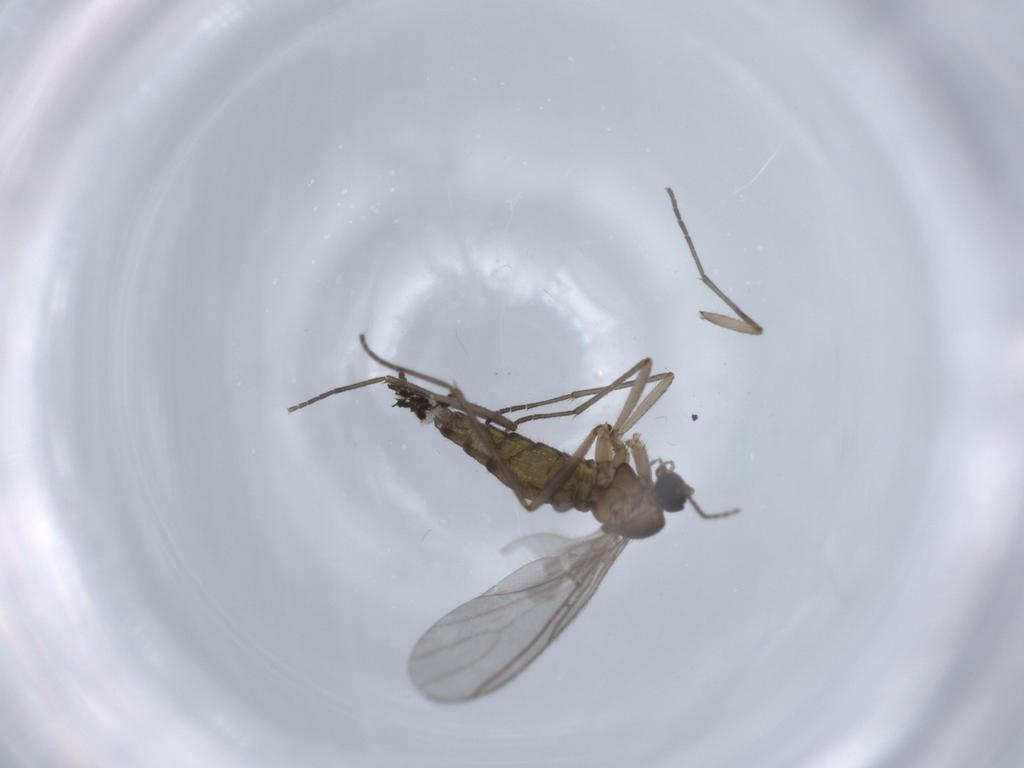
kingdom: Animalia
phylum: Arthropoda
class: Insecta
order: Diptera
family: Sciaridae
